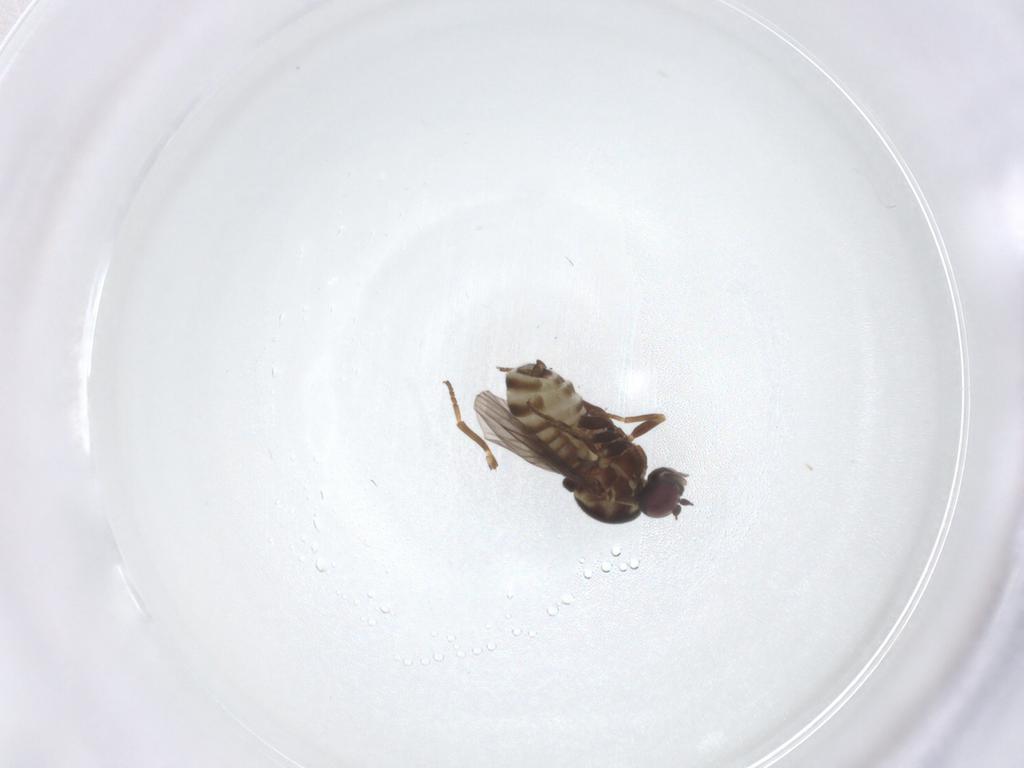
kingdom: Animalia
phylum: Arthropoda
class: Insecta
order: Diptera
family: Bombyliidae
